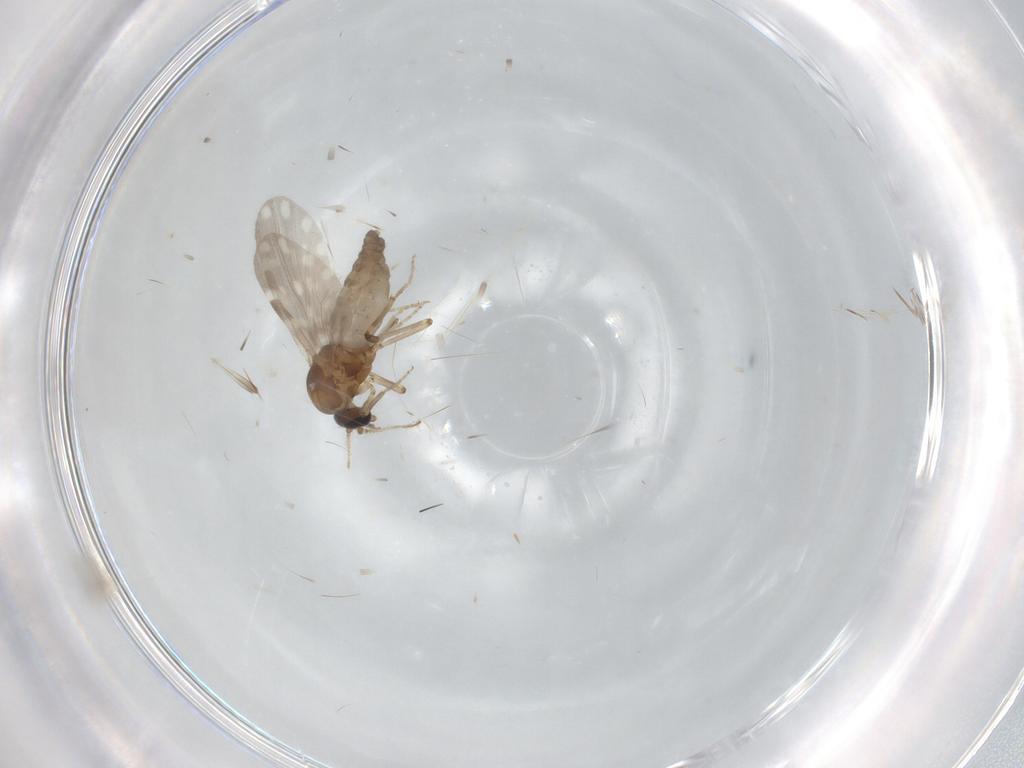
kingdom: Animalia
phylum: Arthropoda
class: Insecta
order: Diptera
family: Ceratopogonidae
